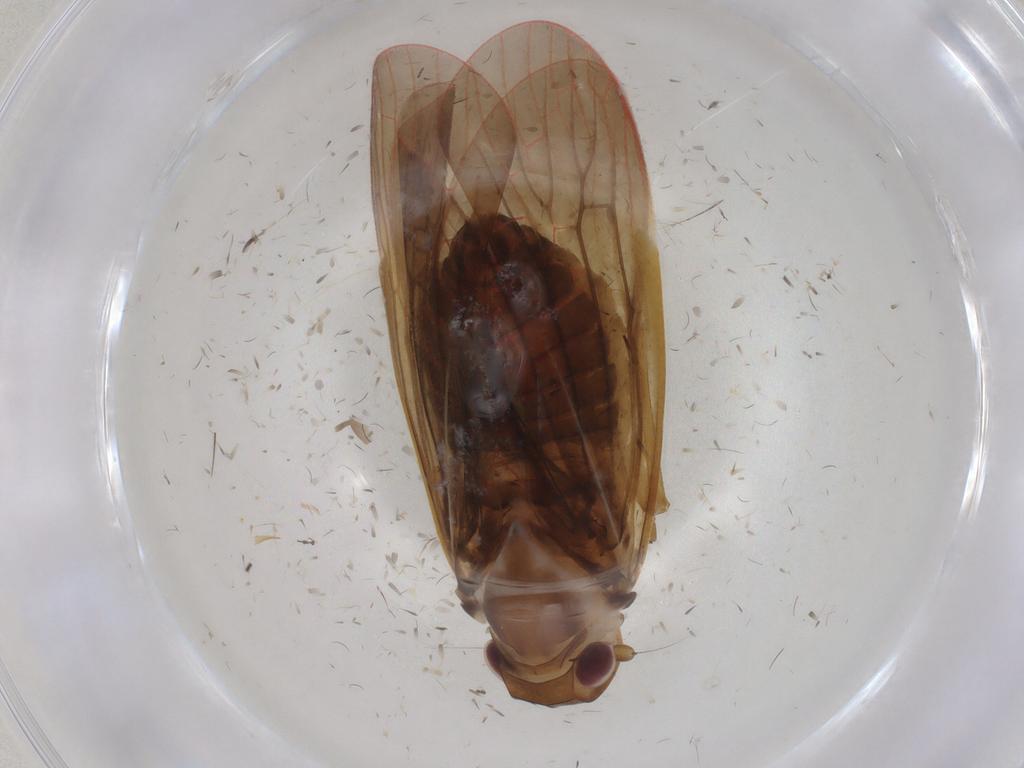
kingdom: Animalia
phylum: Arthropoda
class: Insecta
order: Hemiptera
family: Achilidae
